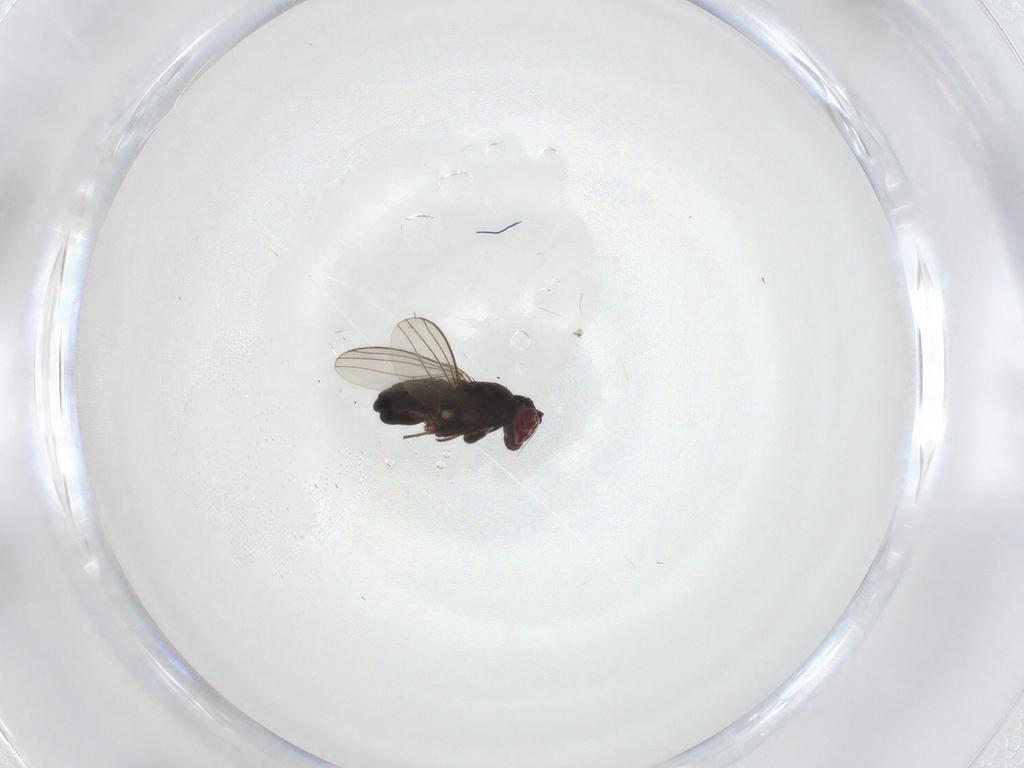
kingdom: Animalia
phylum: Arthropoda
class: Insecta
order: Diptera
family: Dolichopodidae
